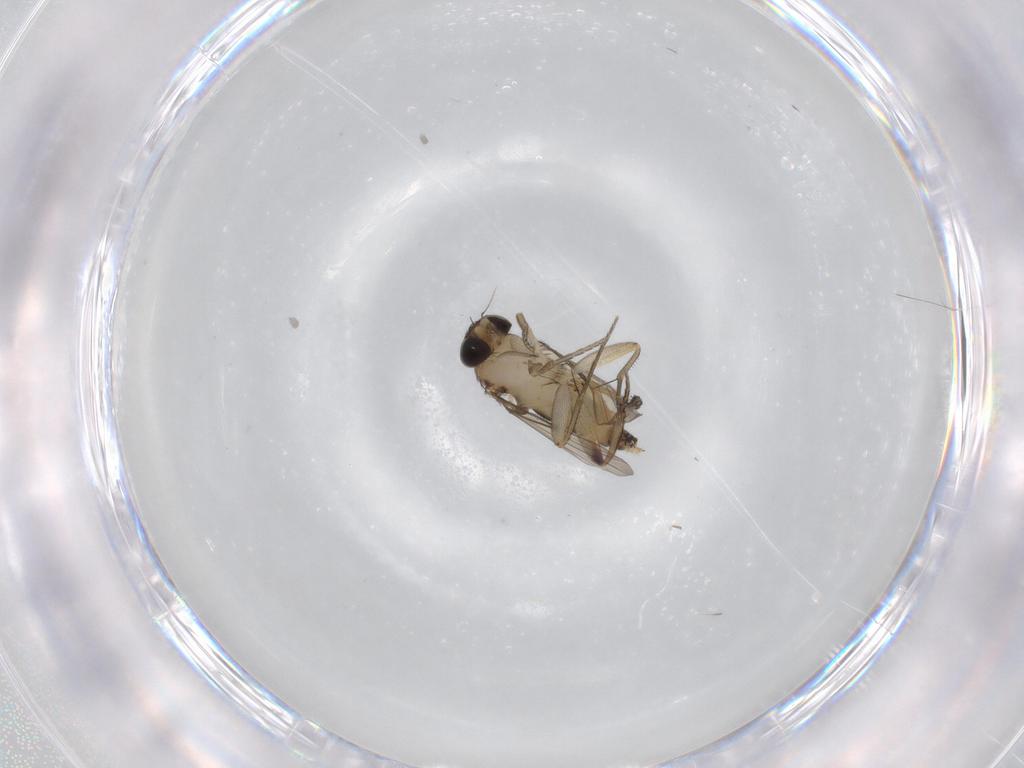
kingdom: Animalia
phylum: Arthropoda
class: Insecta
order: Diptera
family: Phoridae
